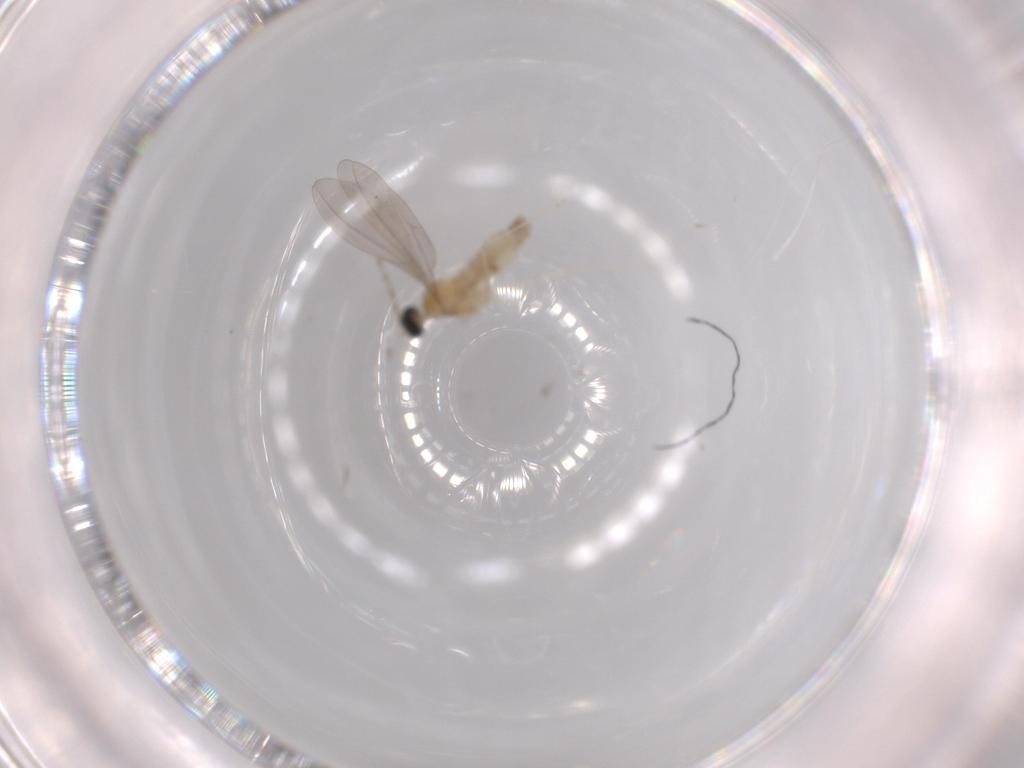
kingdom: Animalia
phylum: Arthropoda
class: Insecta
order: Diptera
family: Cecidomyiidae
